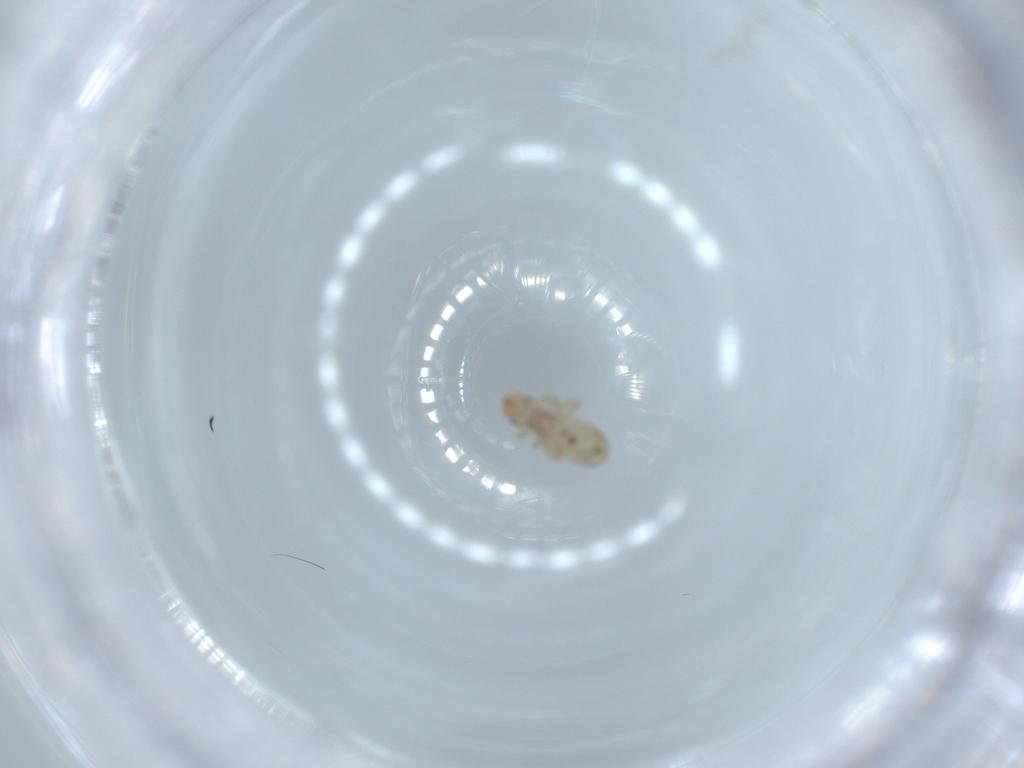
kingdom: Animalia
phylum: Arthropoda
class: Insecta
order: Psocodea
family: Liposcelididae
